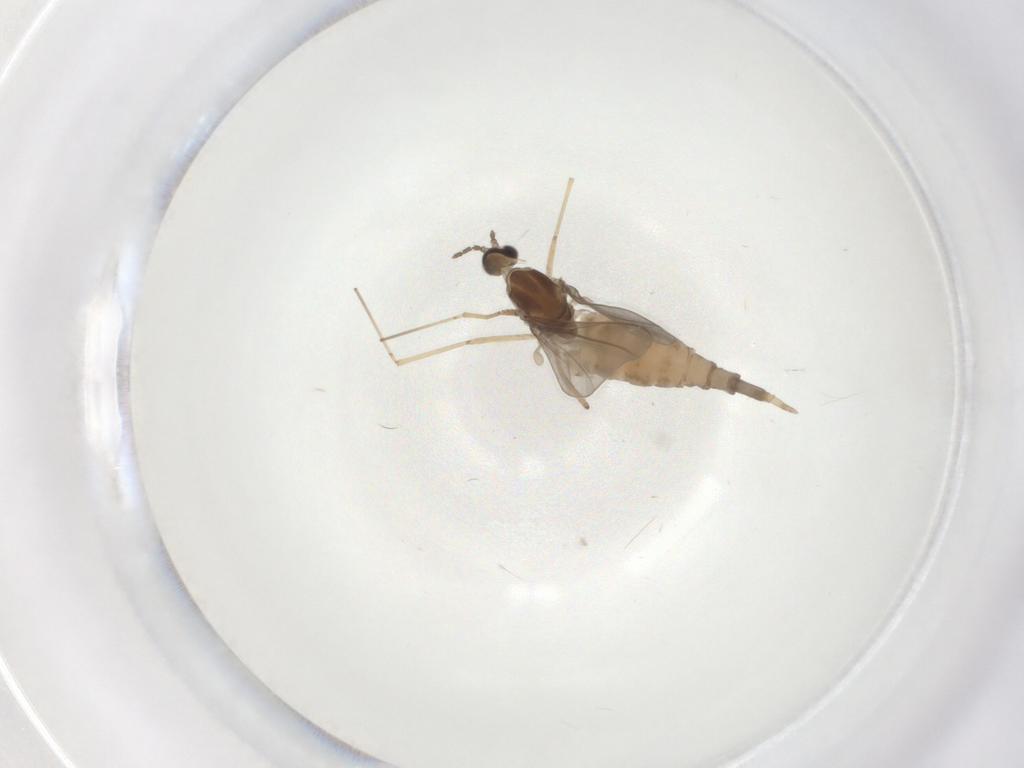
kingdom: Animalia
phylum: Arthropoda
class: Insecta
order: Diptera
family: Cecidomyiidae
